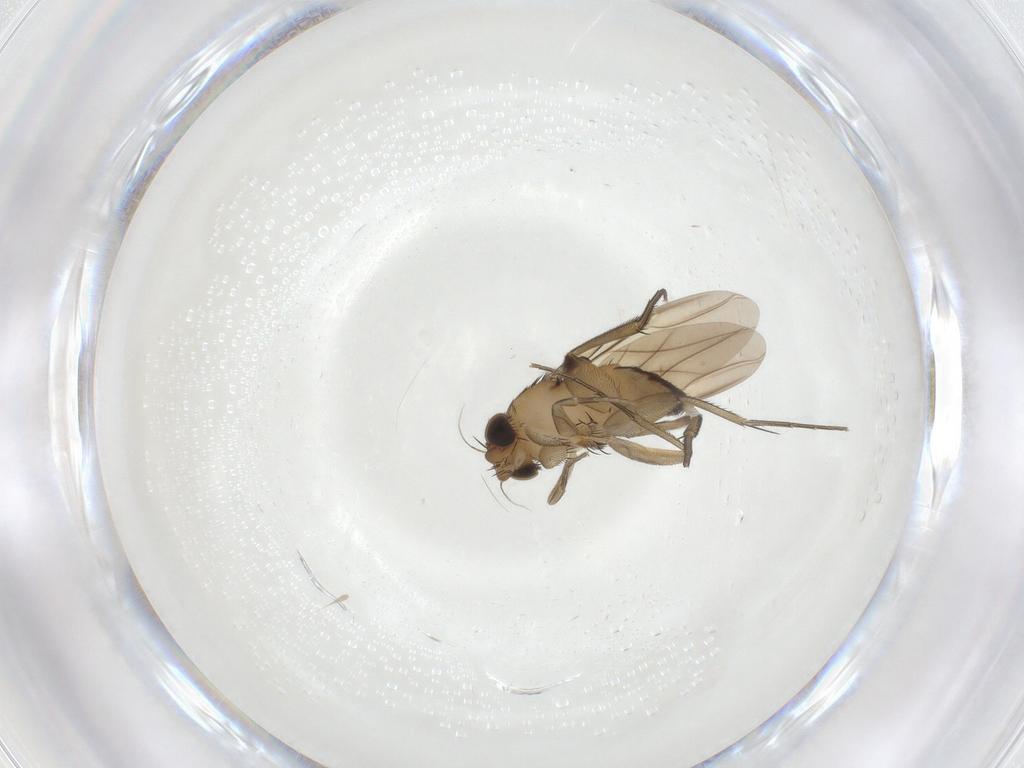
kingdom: Animalia
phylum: Arthropoda
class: Insecta
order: Diptera
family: Phoridae
